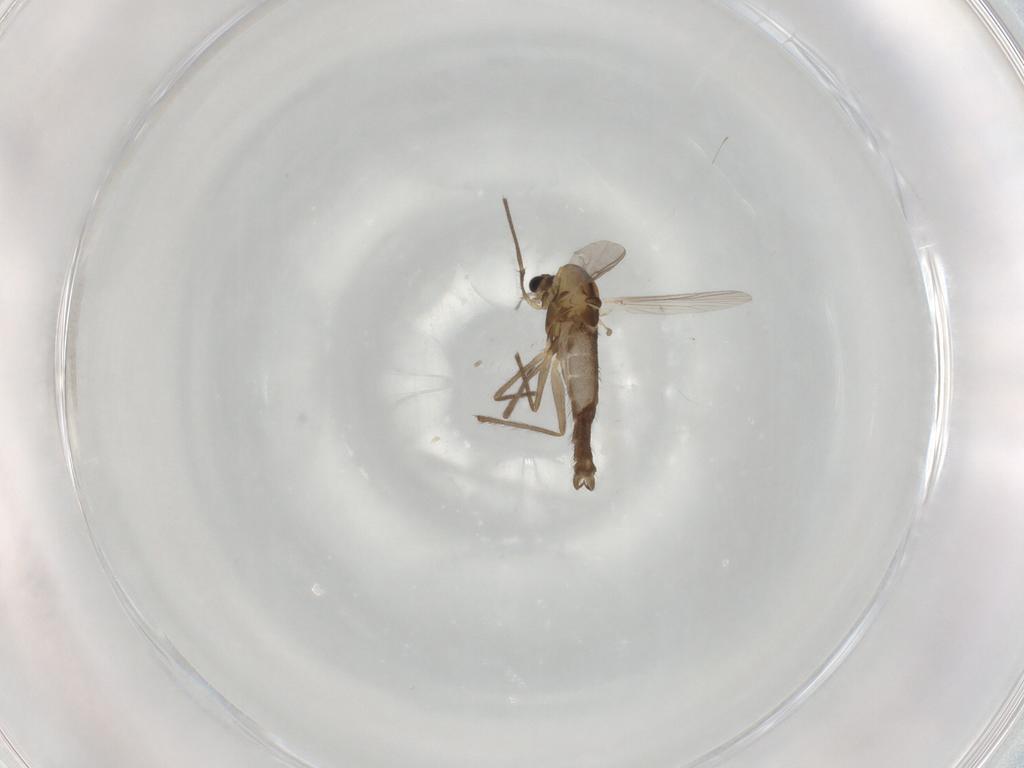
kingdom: Animalia
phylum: Arthropoda
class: Insecta
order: Diptera
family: Chironomidae
